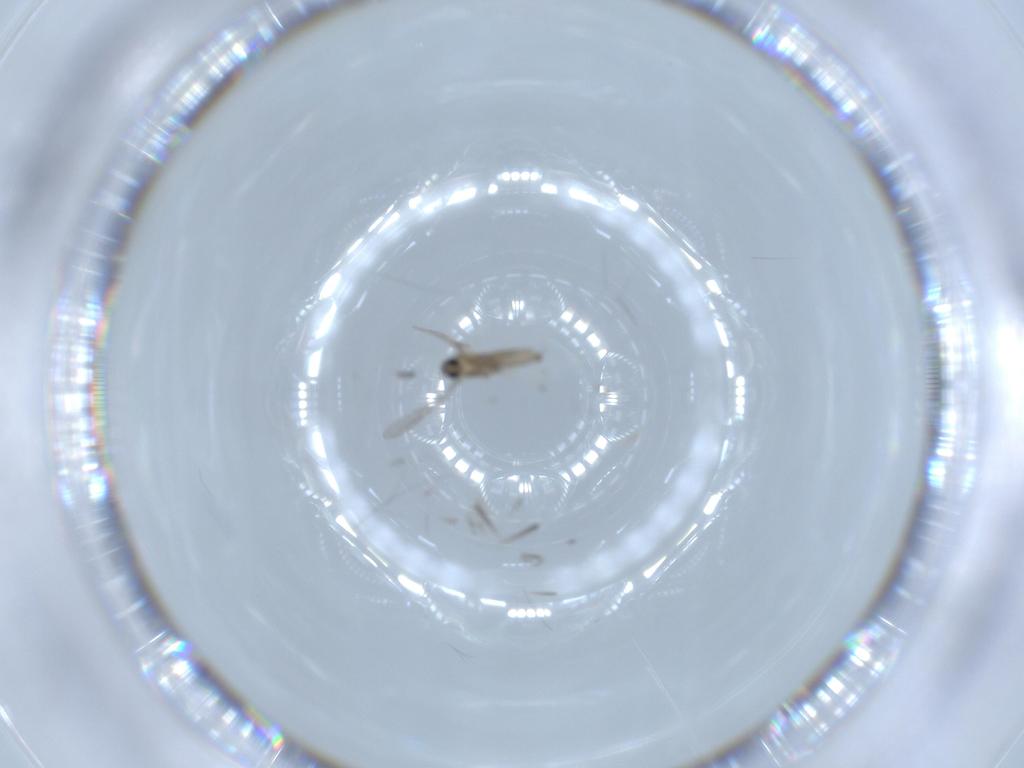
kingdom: Animalia
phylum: Arthropoda
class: Insecta
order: Diptera
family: Cecidomyiidae
